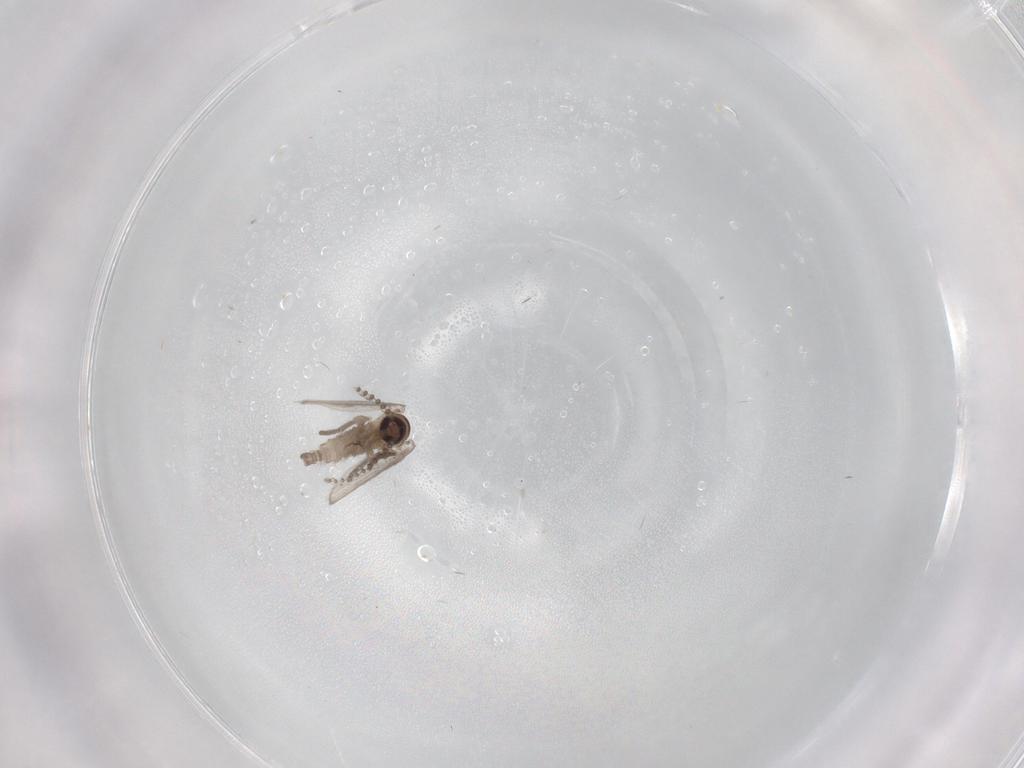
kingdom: Animalia
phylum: Arthropoda
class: Insecta
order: Diptera
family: Psychodidae
